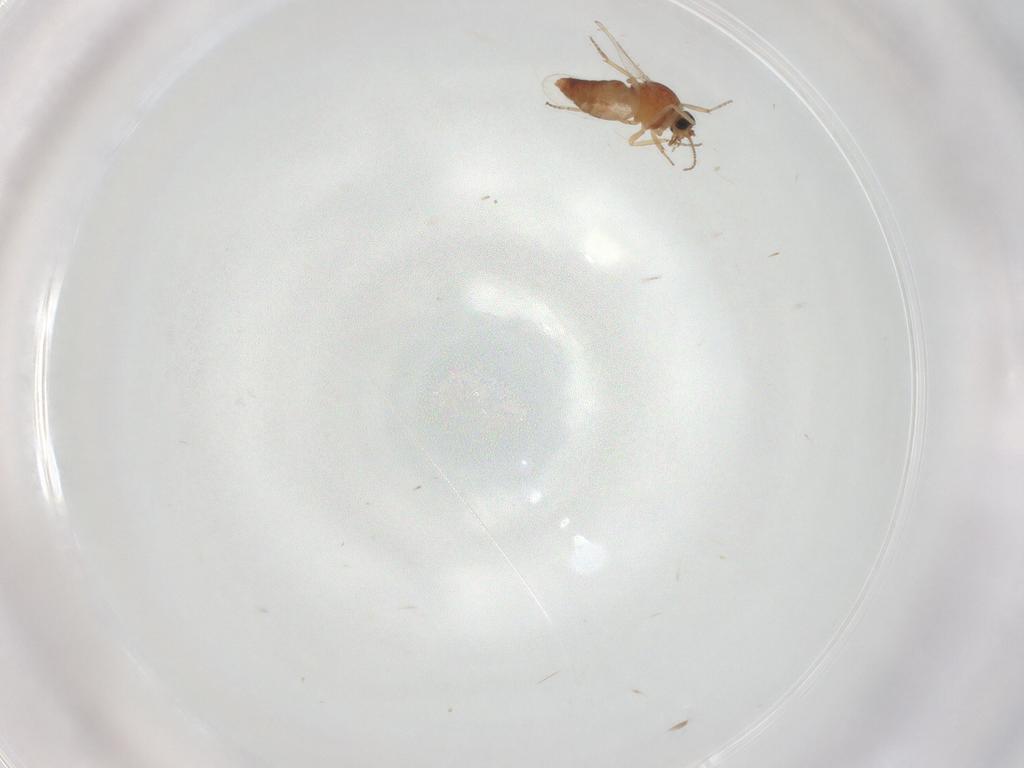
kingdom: Animalia
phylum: Arthropoda
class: Insecta
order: Diptera
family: Ceratopogonidae
